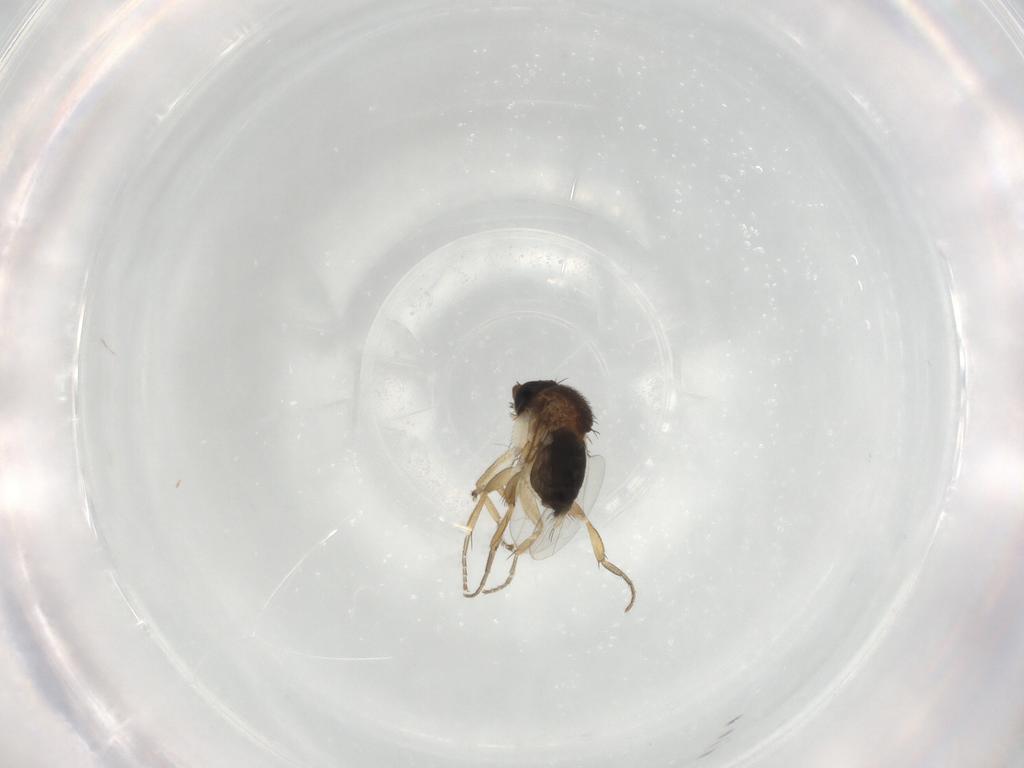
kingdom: Animalia
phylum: Arthropoda
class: Insecta
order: Diptera
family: Phoridae
